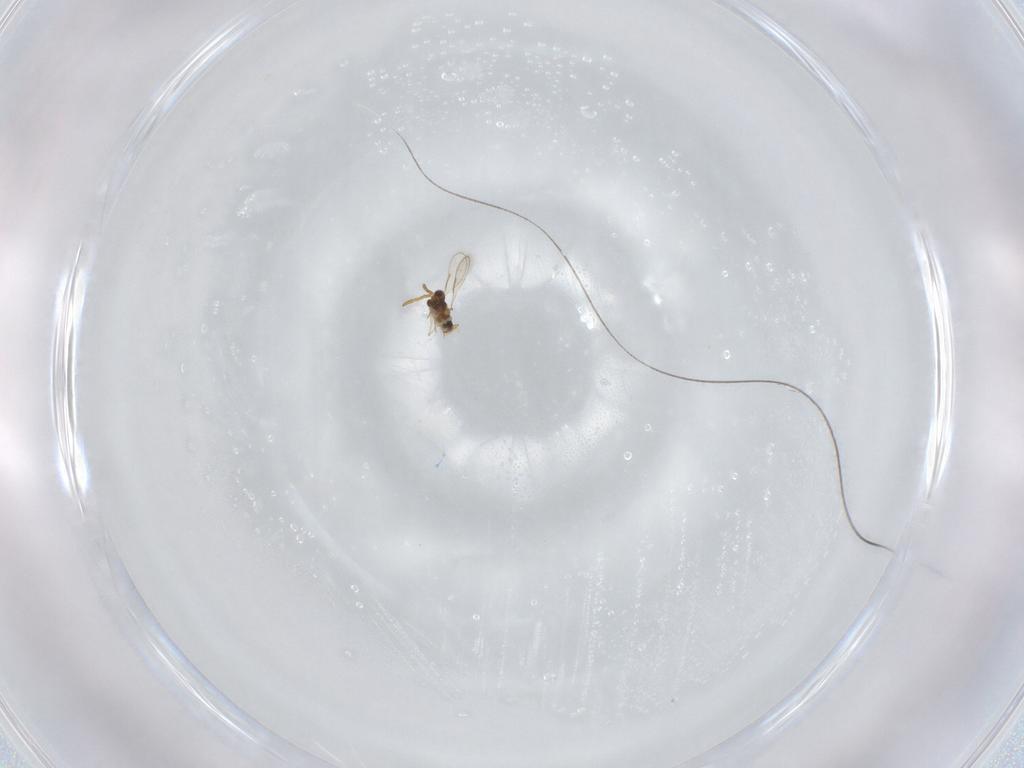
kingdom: Animalia
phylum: Arthropoda
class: Insecta
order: Hymenoptera
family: Aphelinidae
